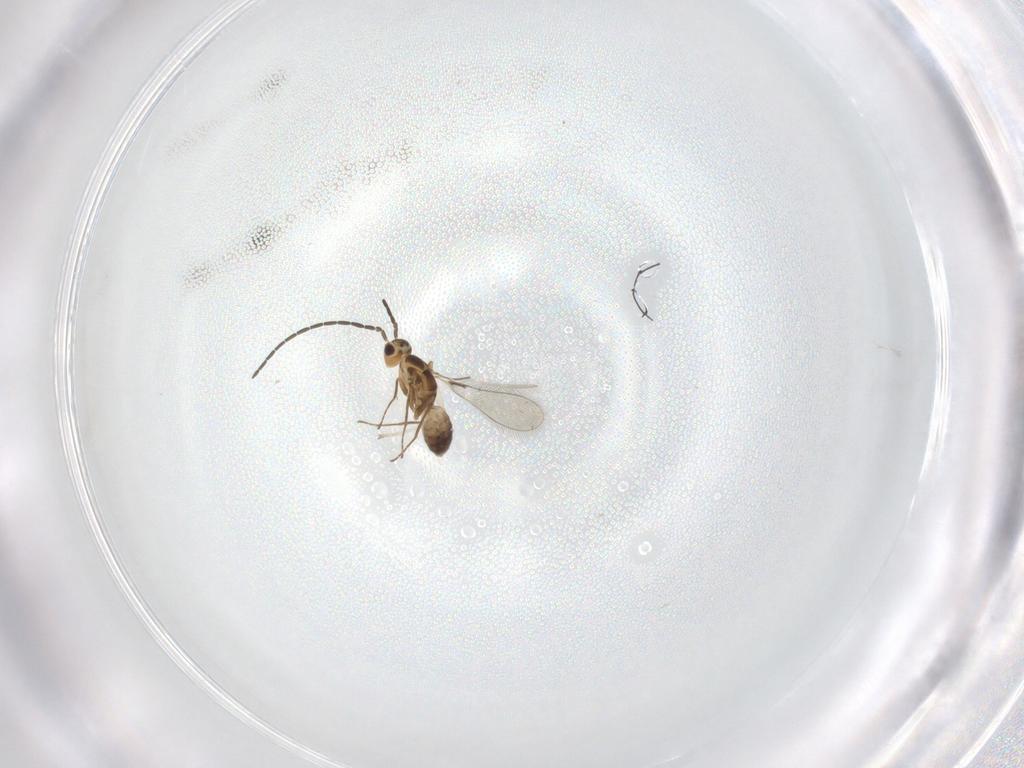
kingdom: Animalia
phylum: Arthropoda
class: Insecta
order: Hymenoptera
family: Mymaridae
